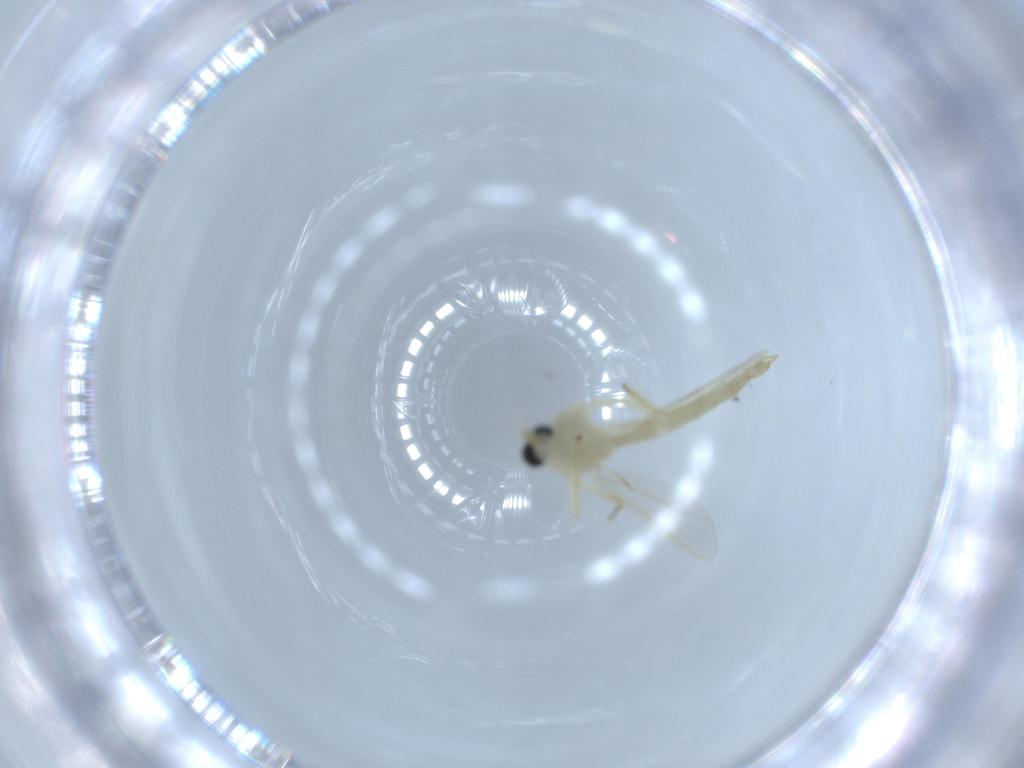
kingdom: Animalia
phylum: Arthropoda
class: Insecta
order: Diptera
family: Chironomidae
